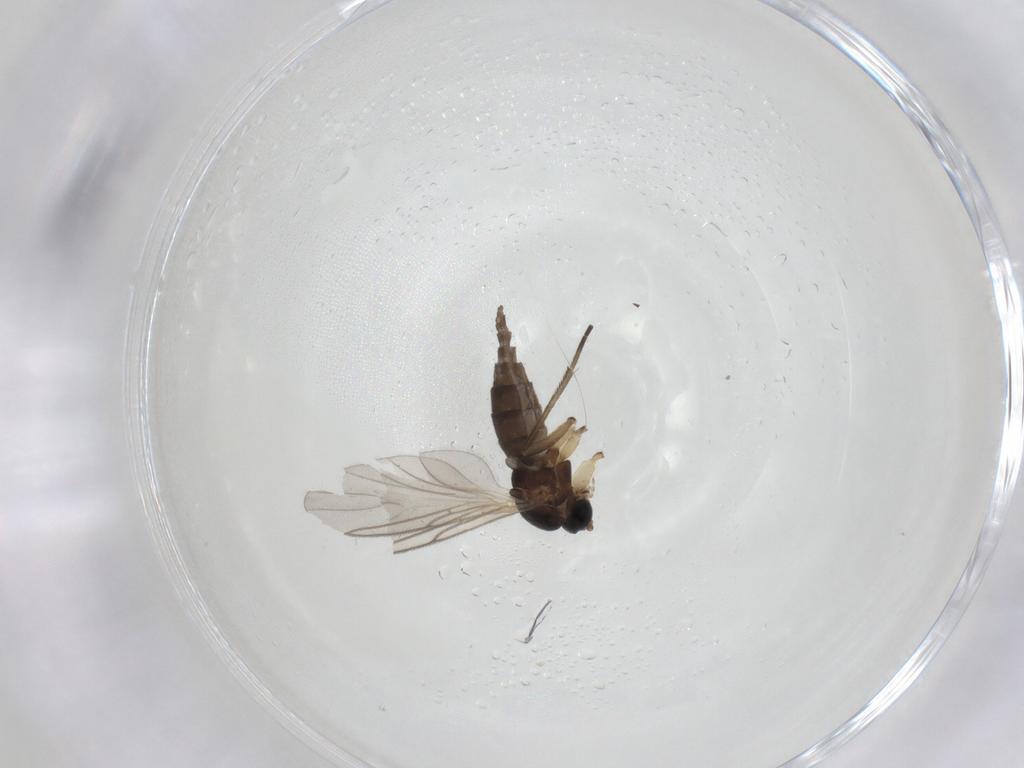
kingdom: Animalia
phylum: Arthropoda
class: Insecta
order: Diptera
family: Sciaridae
